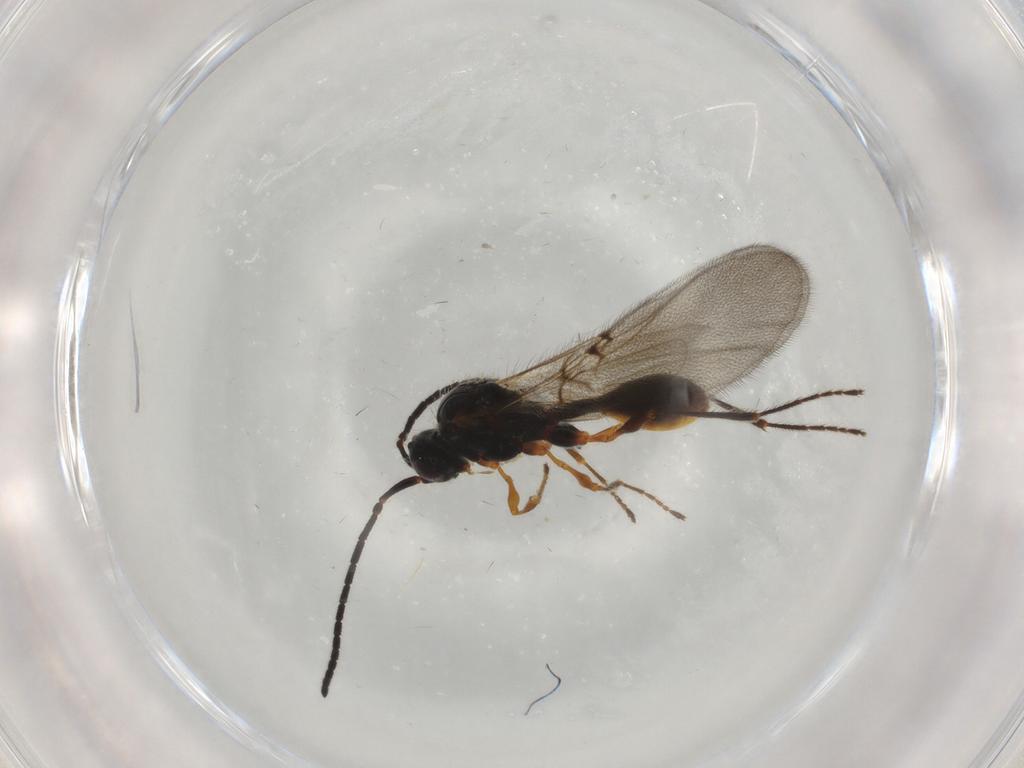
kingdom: Animalia
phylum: Arthropoda
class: Insecta
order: Hymenoptera
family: Diapriidae
